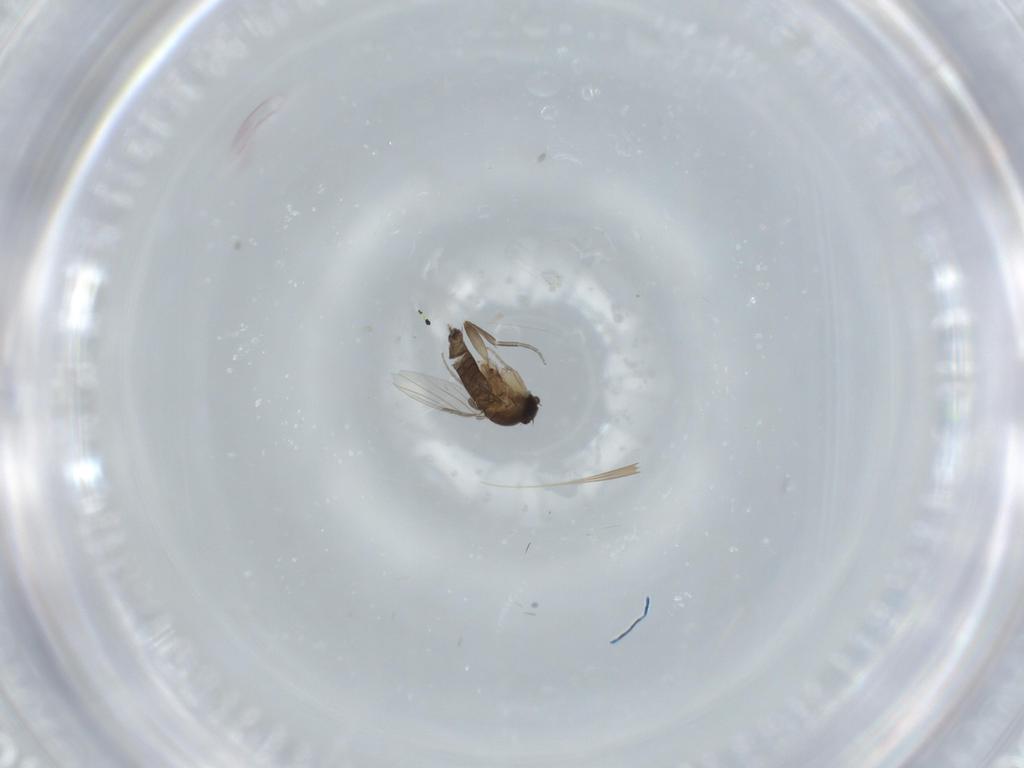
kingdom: Animalia
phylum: Arthropoda
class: Insecta
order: Diptera
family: Phoridae
